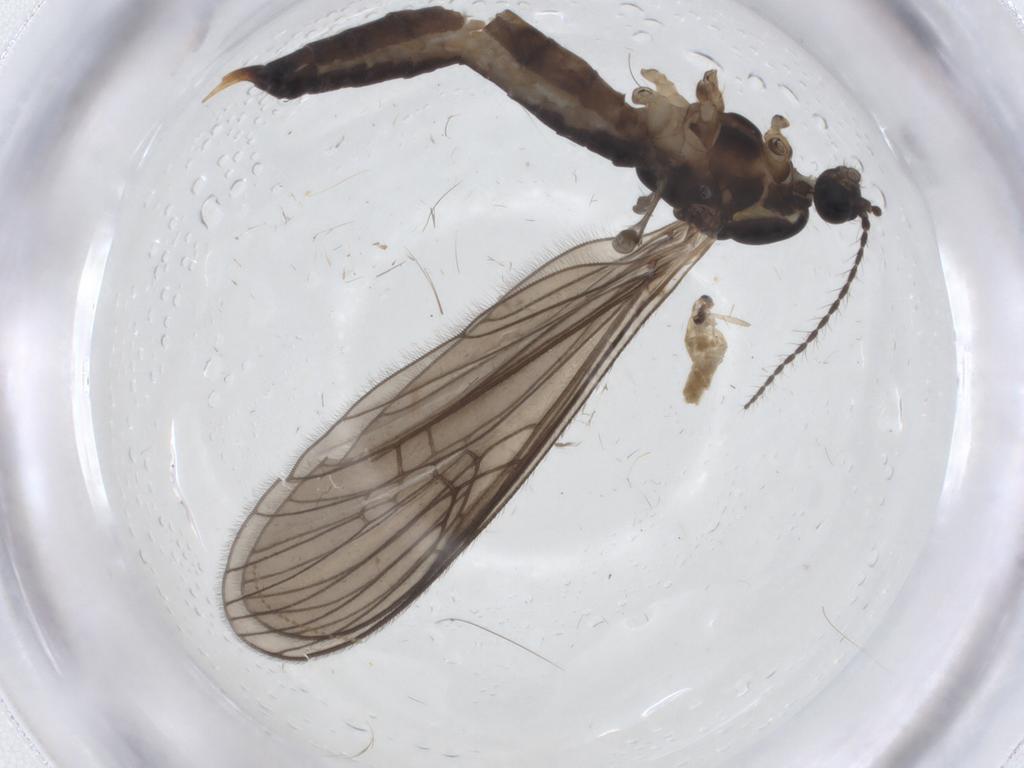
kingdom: Animalia
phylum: Arthropoda
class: Insecta
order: Diptera
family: Limoniidae
